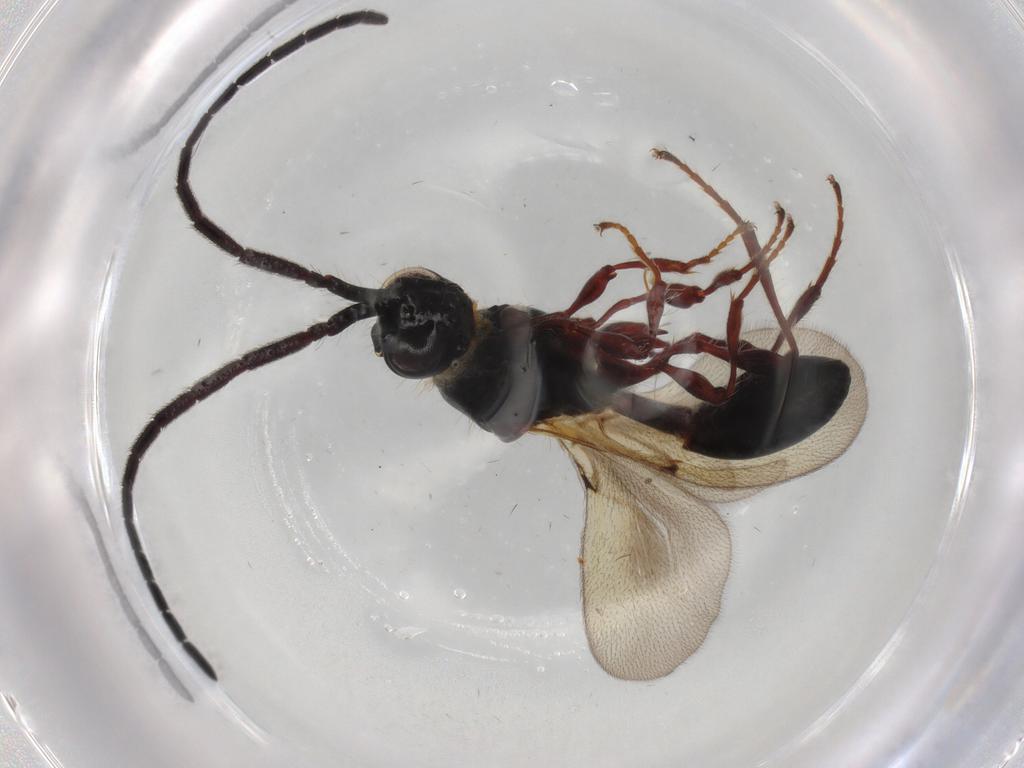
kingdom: Animalia
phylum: Arthropoda
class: Insecta
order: Hymenoptera
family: Diapriidae
